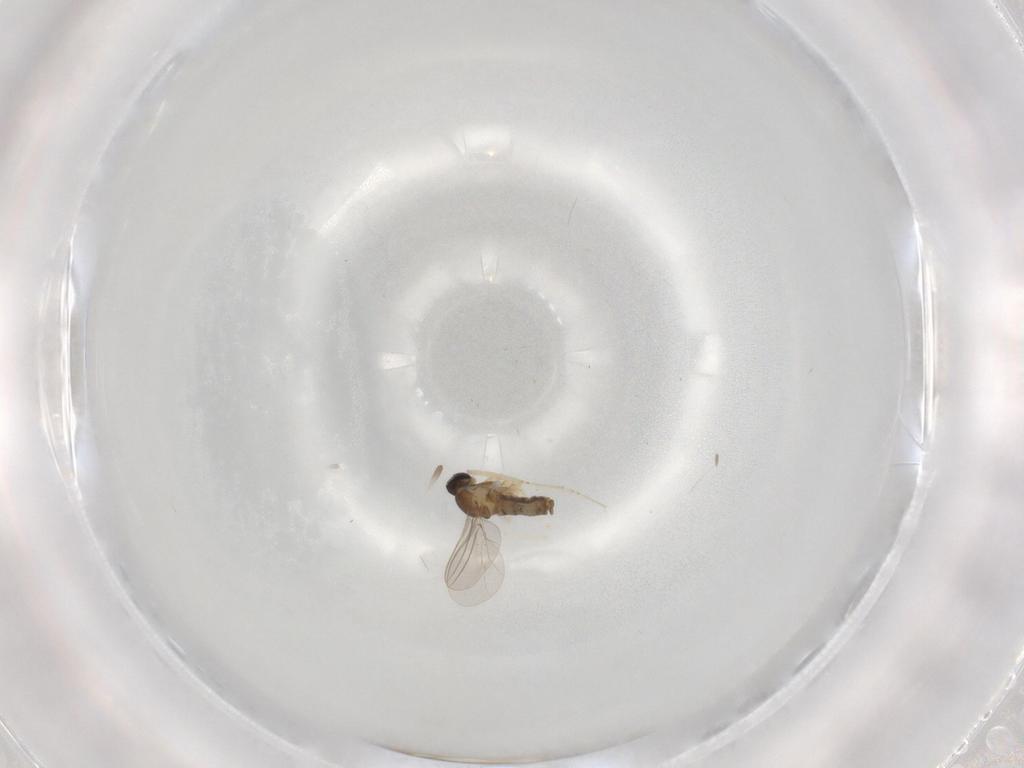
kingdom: Animalia
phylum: Arthropoda
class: Insecta
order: Diptera
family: Cecidomyiidae
